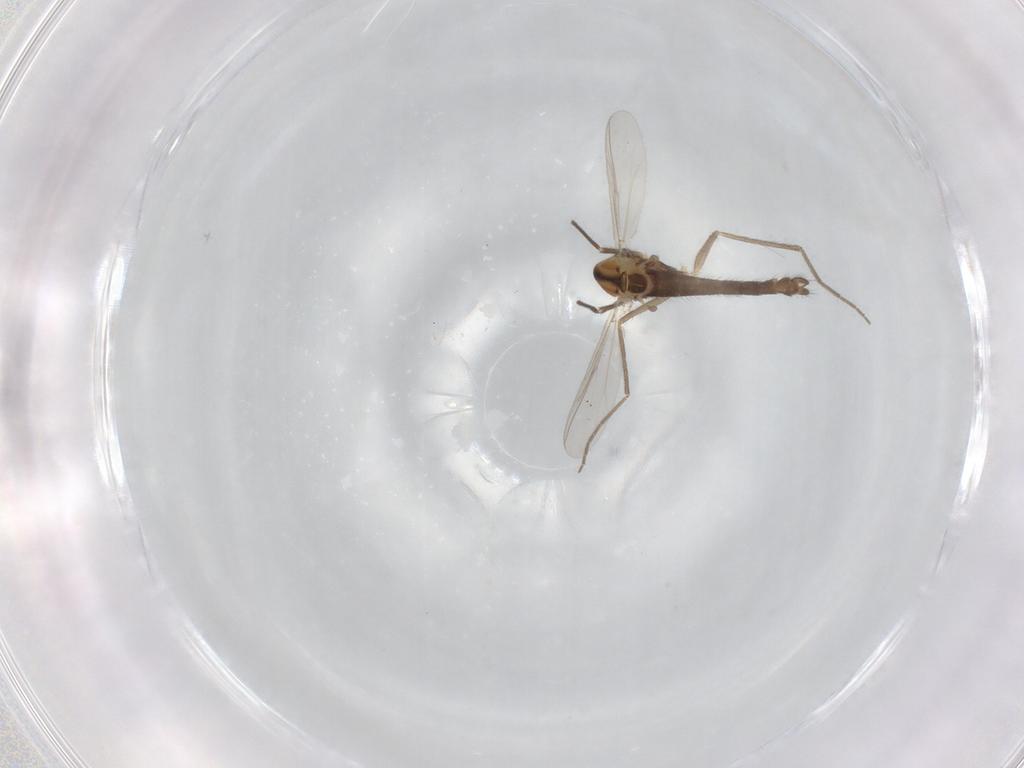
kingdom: Animalia
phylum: Arthropoda
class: Insecta
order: Diptera
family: Chironomidae
